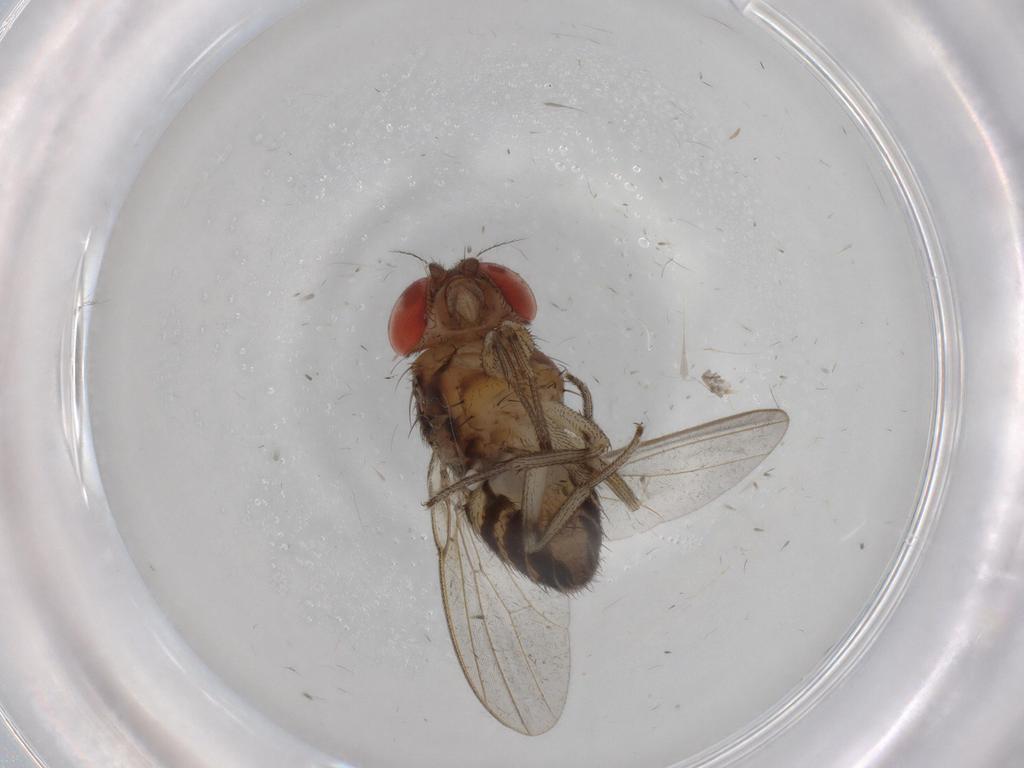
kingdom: Animalia
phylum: Arthropoda
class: Insecta
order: Diptera
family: Drosophilidae
